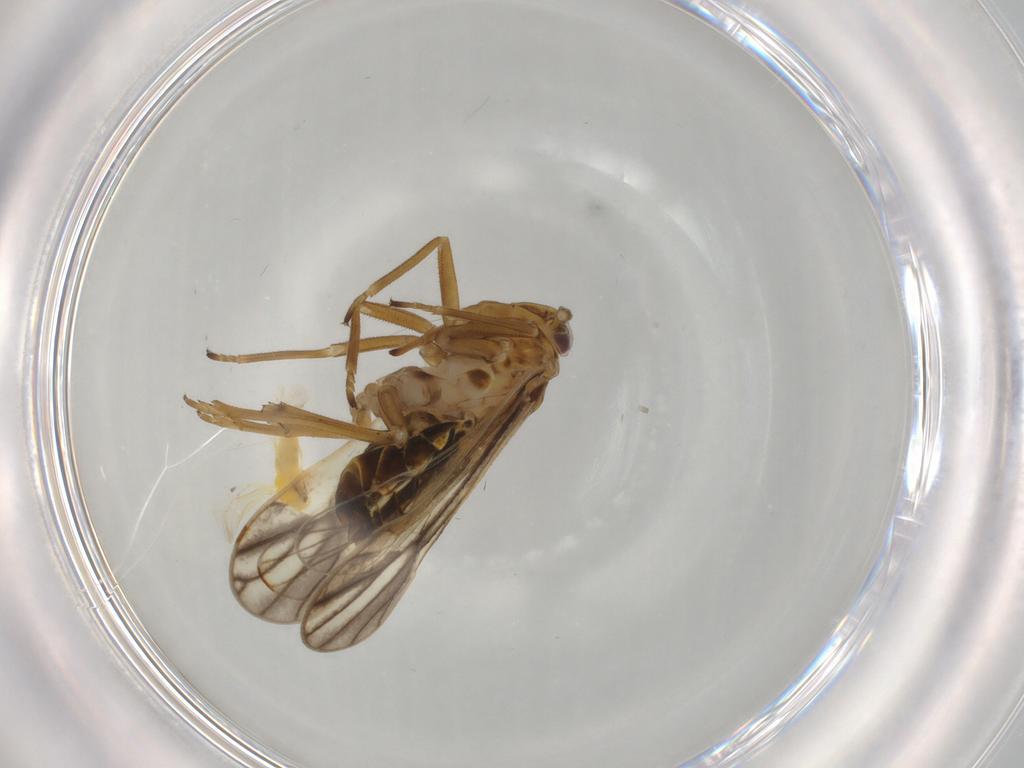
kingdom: Animalia
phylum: Arthropoda
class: Insecta
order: Hemiptera
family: Delphacidae
